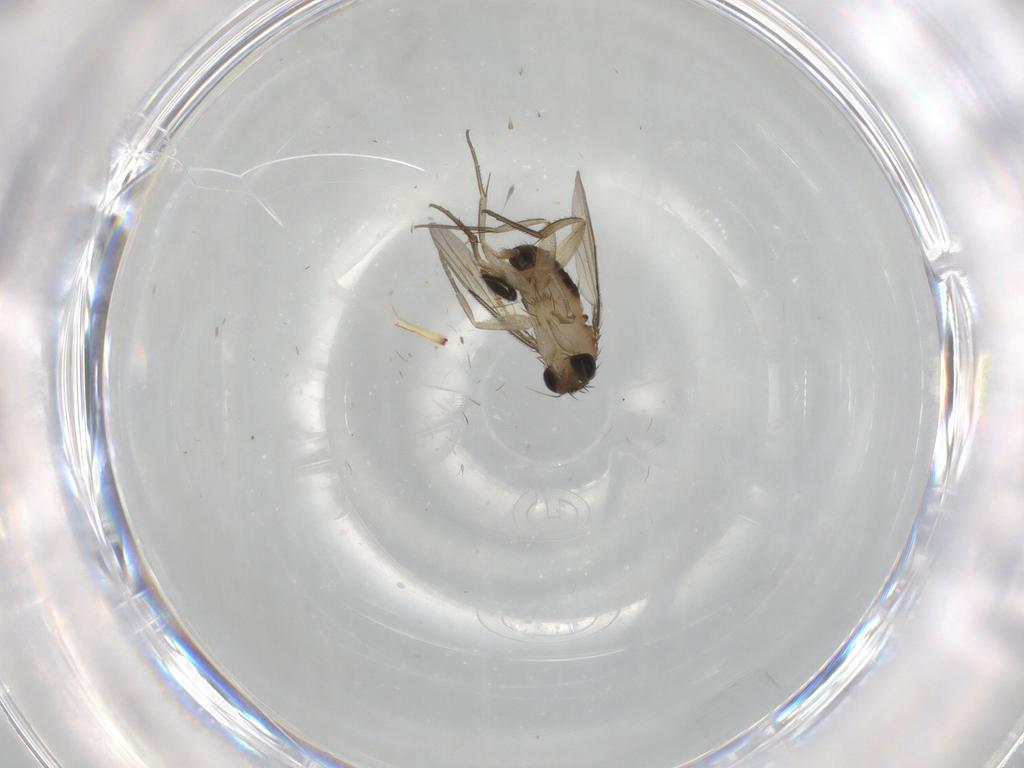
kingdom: Animalia
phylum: Arthropoda
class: Insecta
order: Diptera
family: Milichiidae
